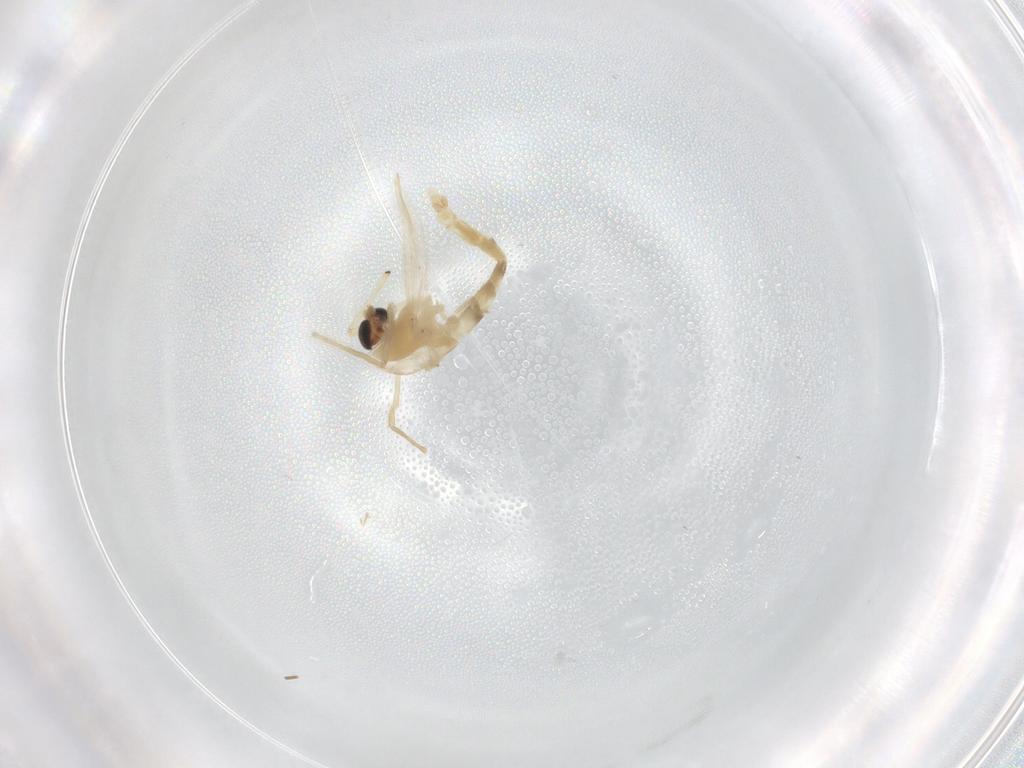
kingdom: Animalia
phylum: Arthropoda
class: Insecta
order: Diptera
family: Chironomidae
